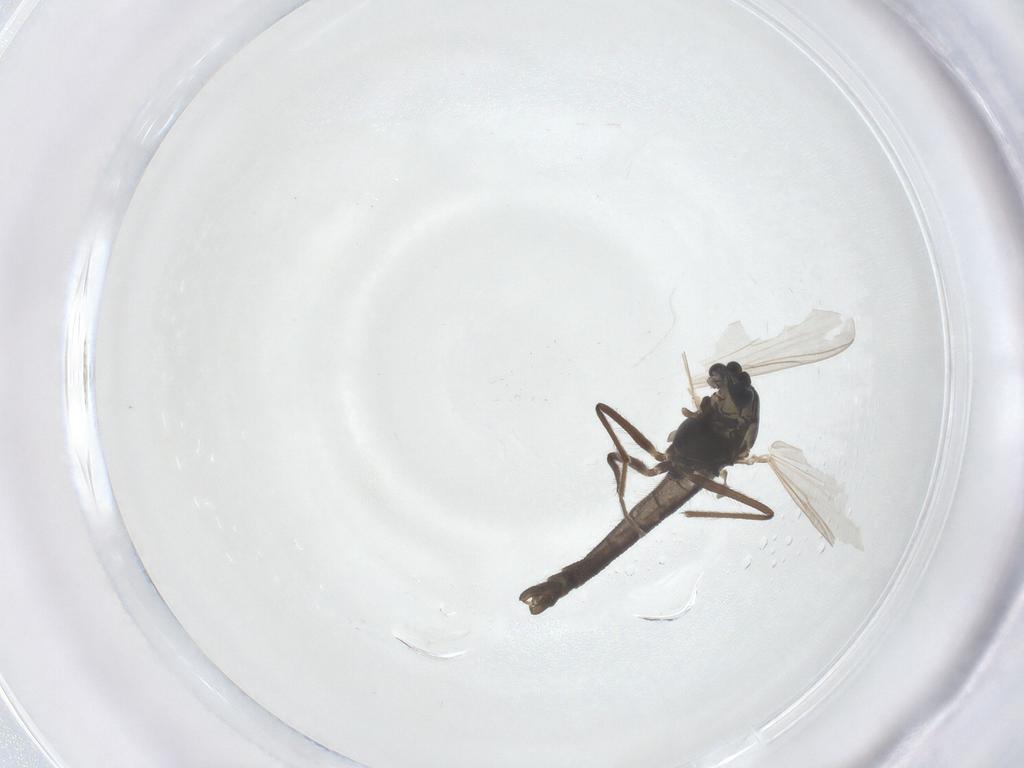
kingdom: Animalia
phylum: Arthropoda
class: Insecta
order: Diptera
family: Chironomidae
